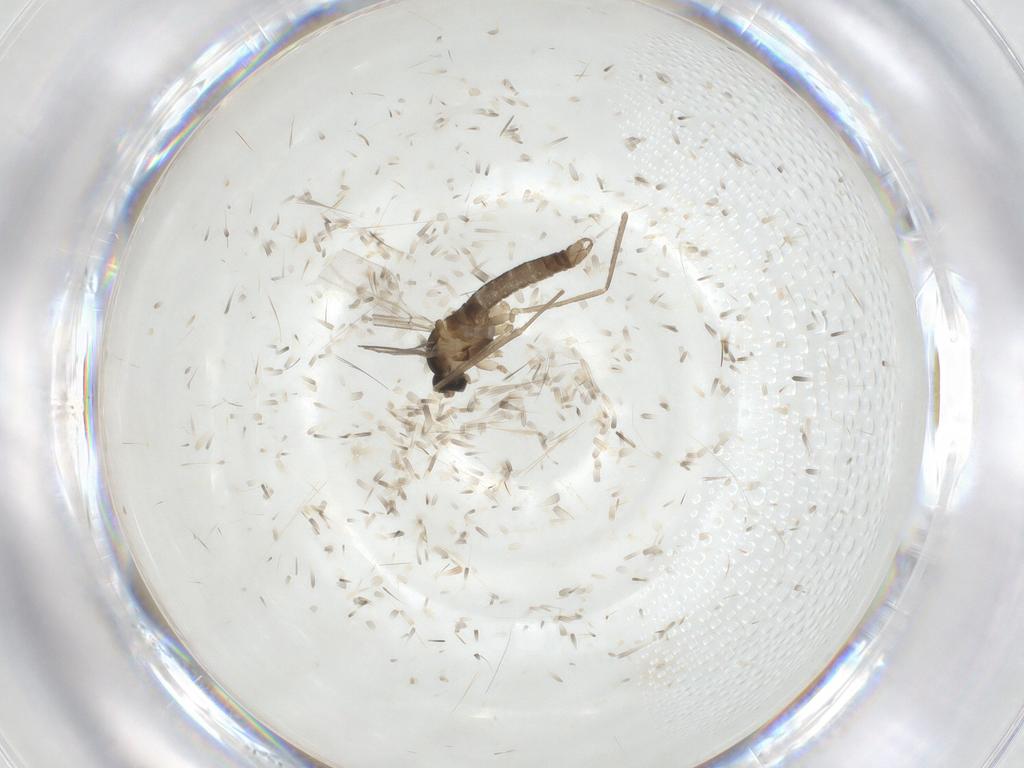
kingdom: Animalia
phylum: Arthropoda
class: Insecta
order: Diptera
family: Cecidomyiidae
